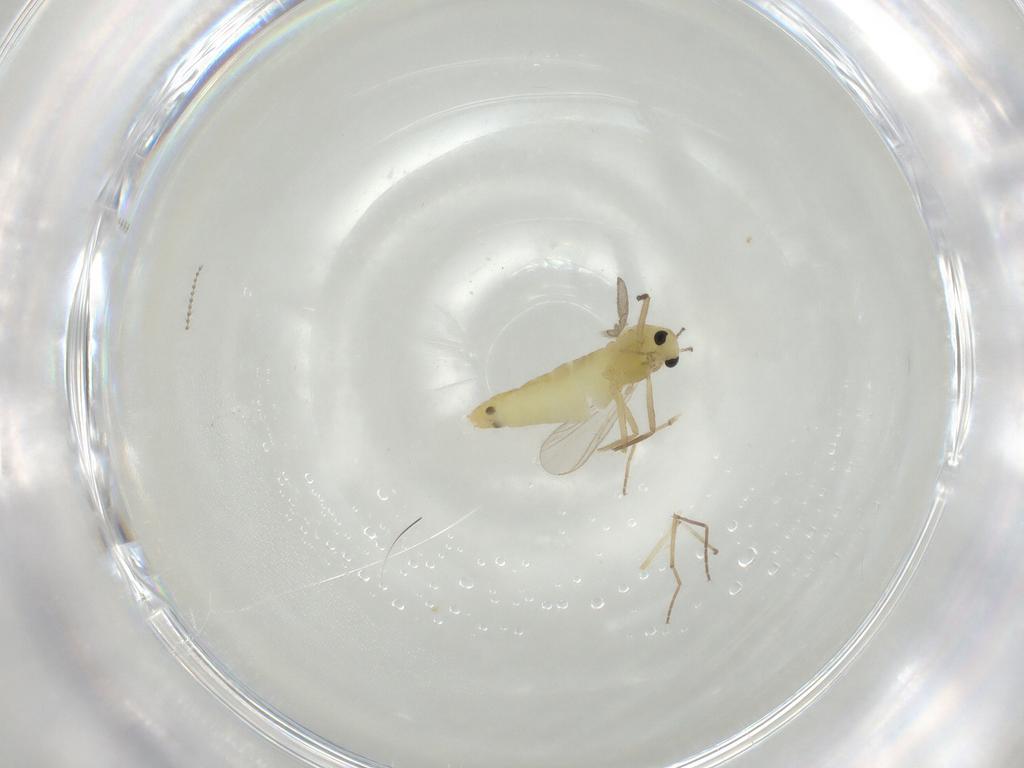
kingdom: Animalia
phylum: Arthropoda
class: Insecta
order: Diptera
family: Chironomidae
